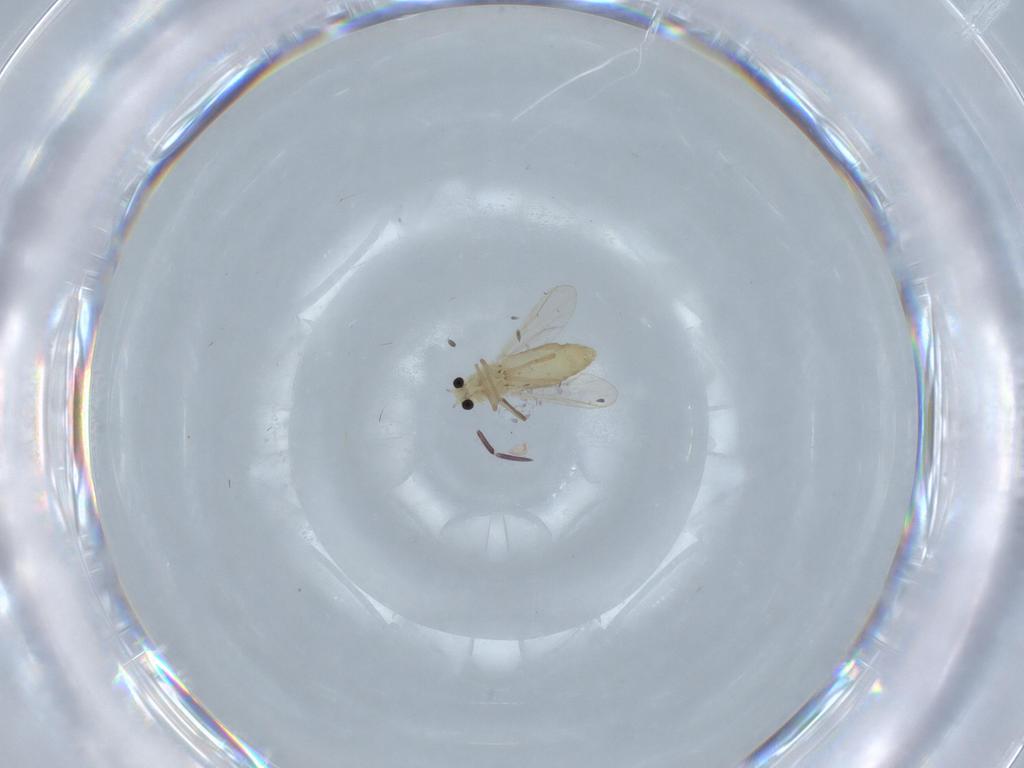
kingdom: Animalia
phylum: Arthropoda
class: Insecta
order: Diptera
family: Chironomidae
